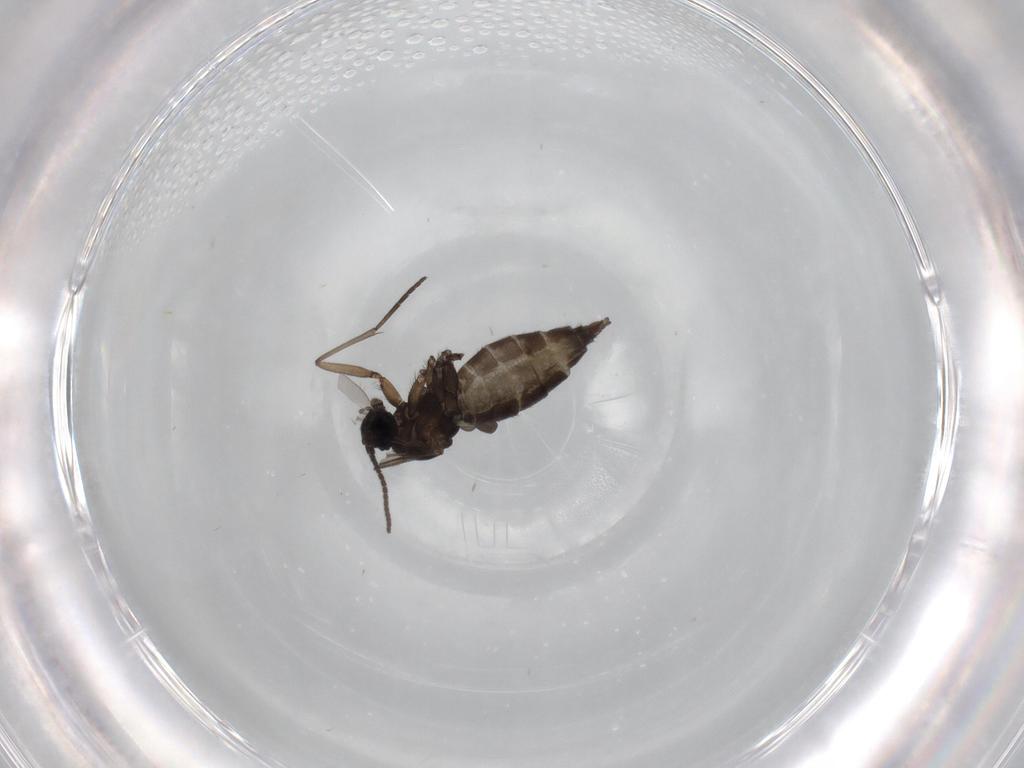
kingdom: Animalia
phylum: Arthropoda
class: Insecta
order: Diptera
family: Sciaridae
